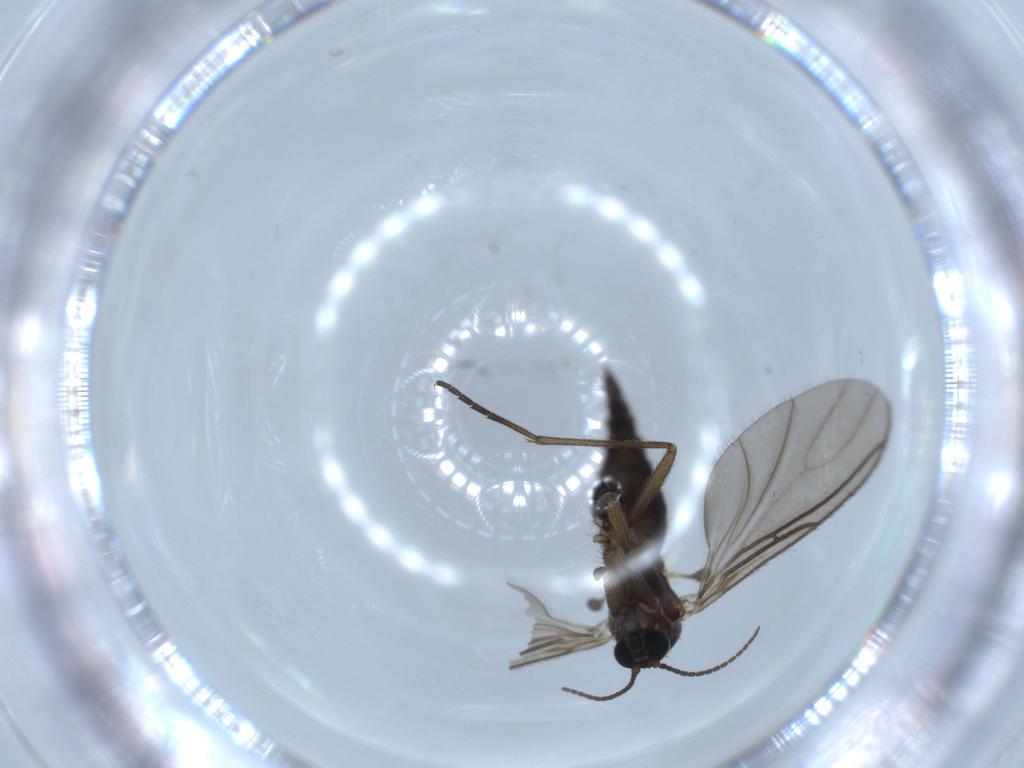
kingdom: Animalia
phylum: Arthropoda
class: Insecta
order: Diptera
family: Sciaridae
